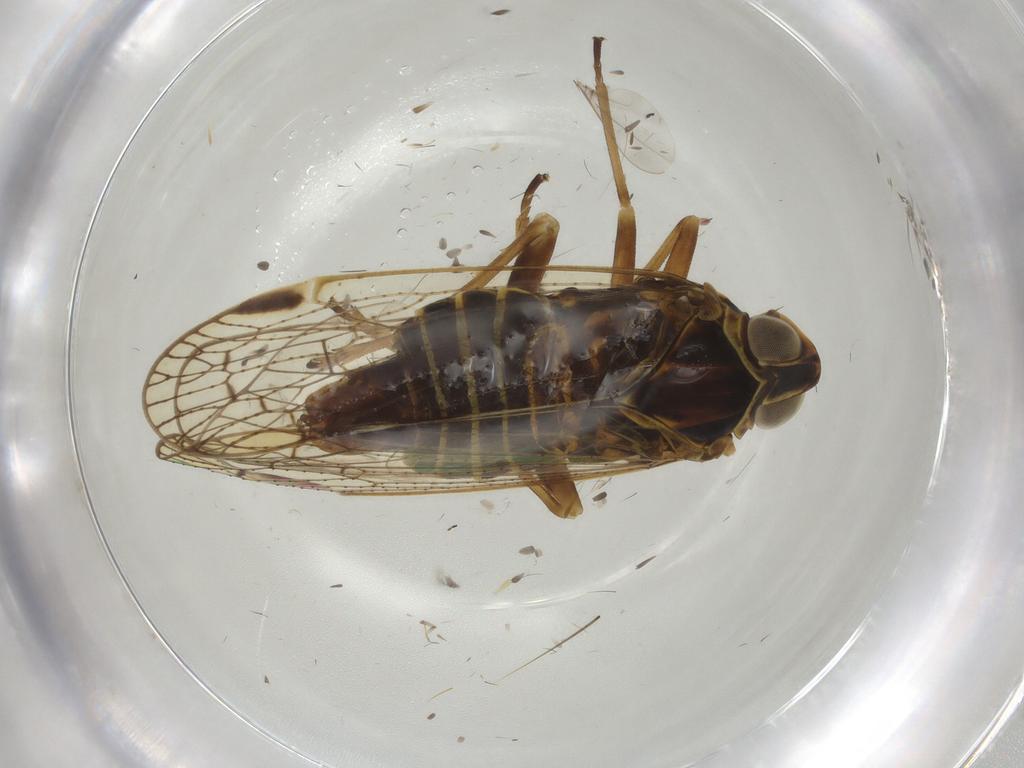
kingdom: Animalia
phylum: Arthropoda
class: Insecta
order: Hemiptera
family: Cixiidae
